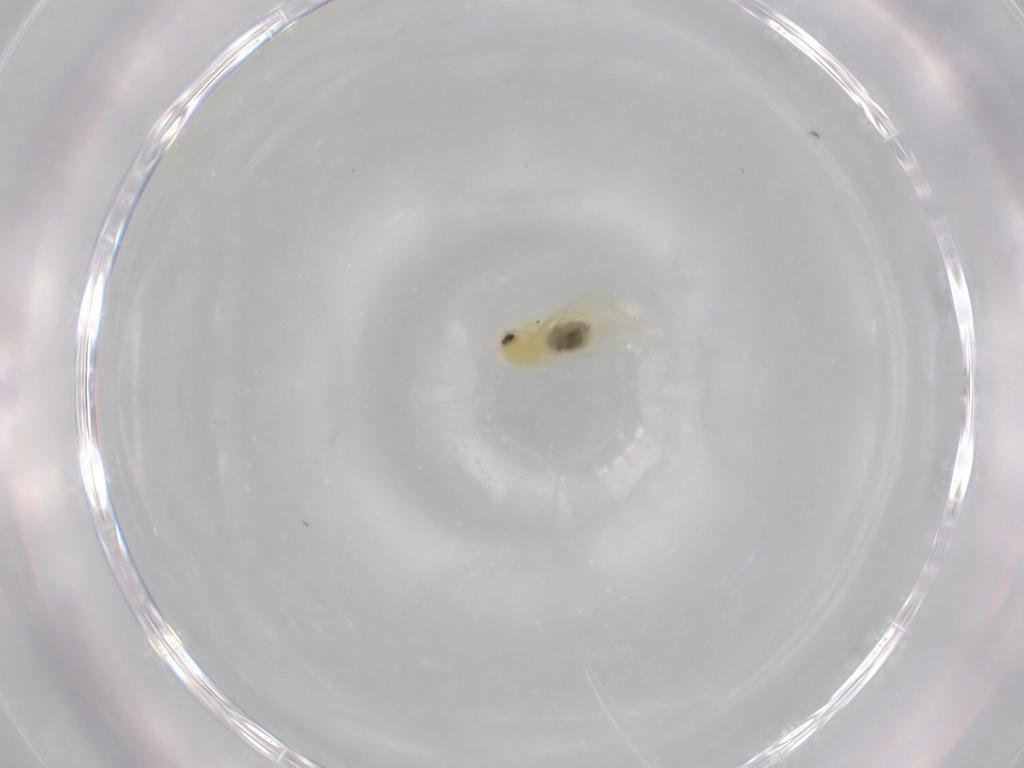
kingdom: Animalia
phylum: Arthropoda
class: Insecta
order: Hemiptera
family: Aleyrodidae
